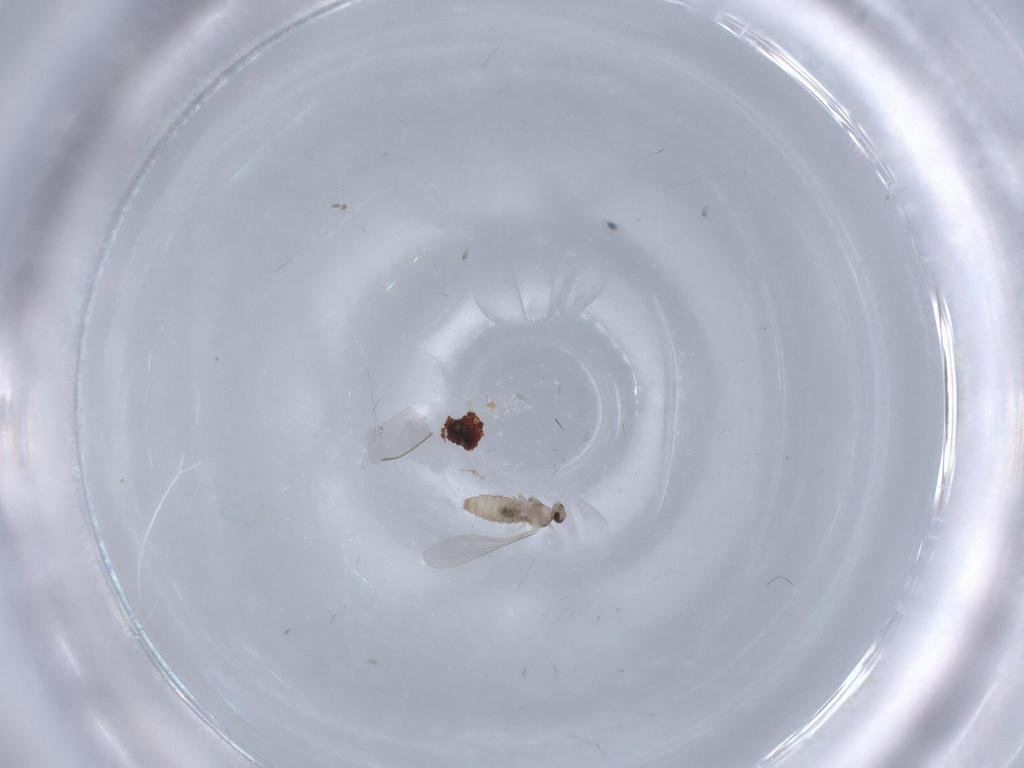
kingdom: Animalia
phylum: Arthropoda
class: Insecta
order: Diptera
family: Cecidomyiidae
